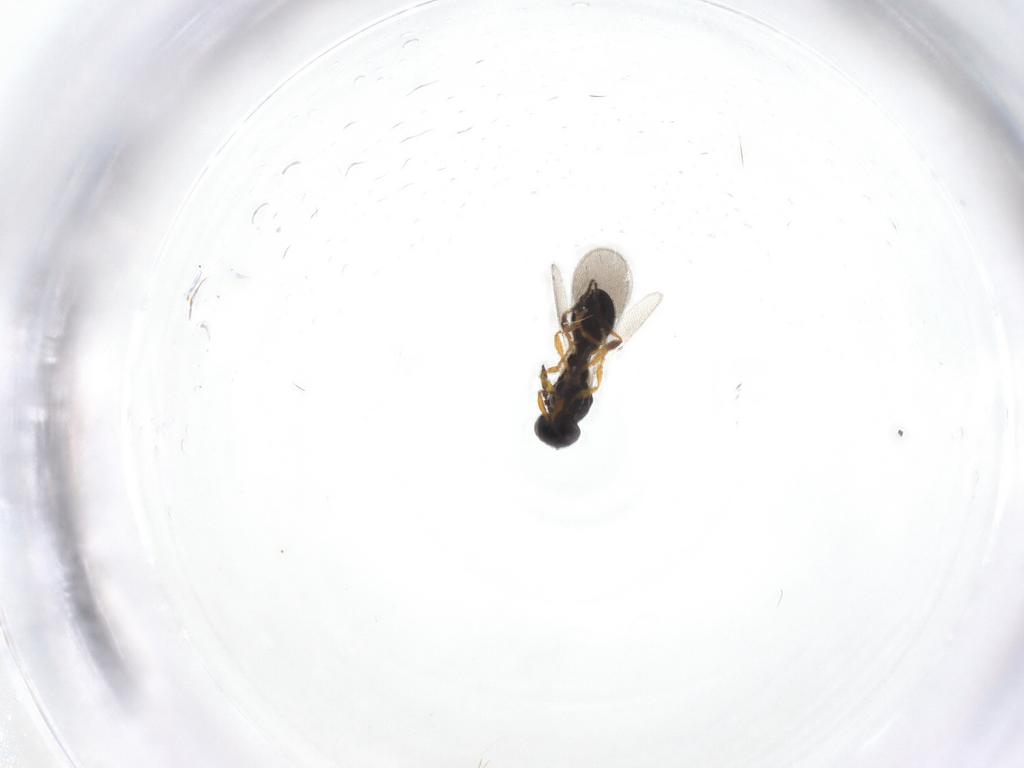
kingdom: Animalia
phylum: Arthropoda
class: Insecta
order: Hymenoptera
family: Platygastridae
